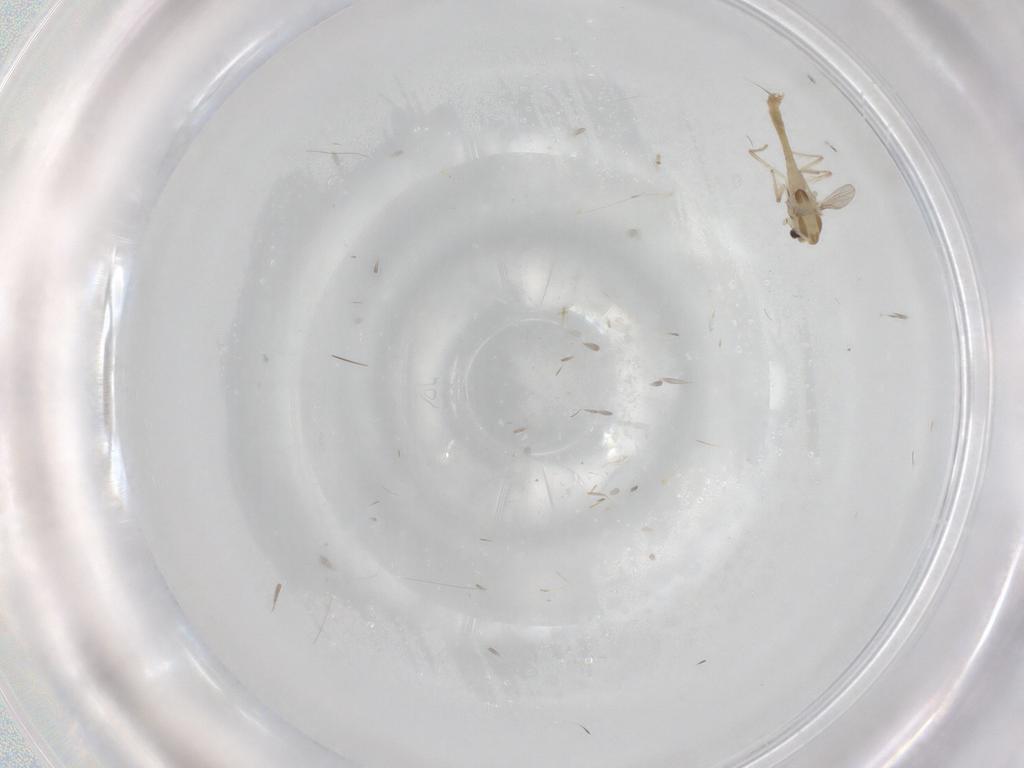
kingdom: Animalia
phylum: Arthropoda
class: Insecta
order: Diptera
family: Chironomidae
